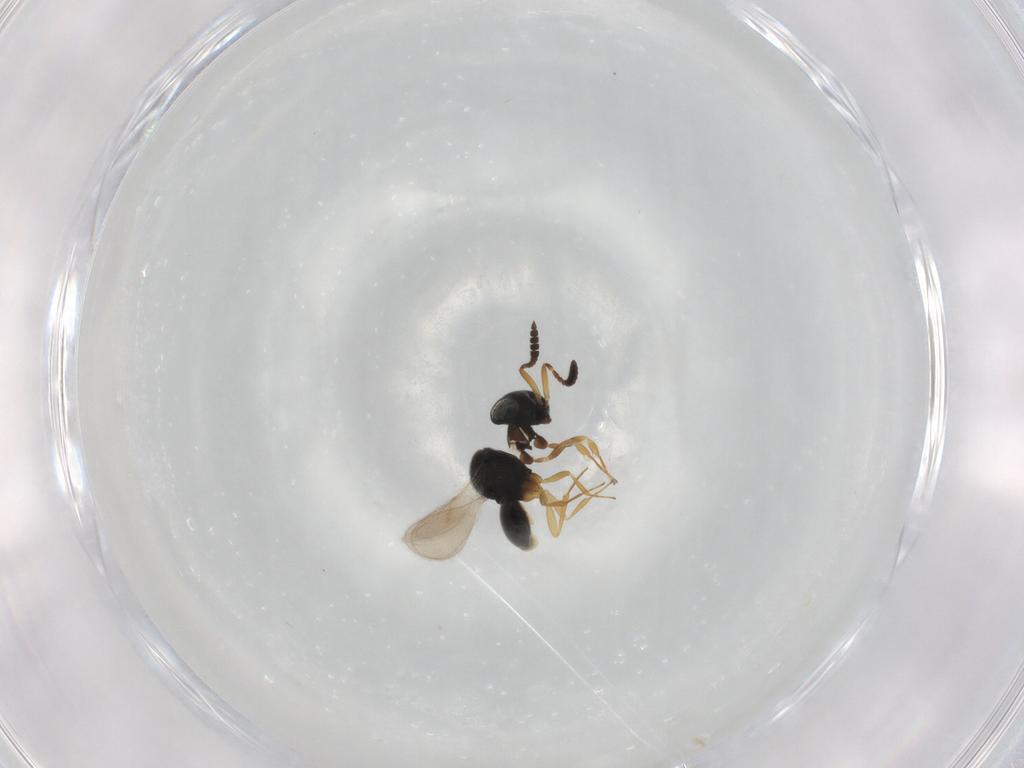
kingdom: Animalia
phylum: Arthropoda
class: Insecta
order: Hymenoptera
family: Scelionidae
